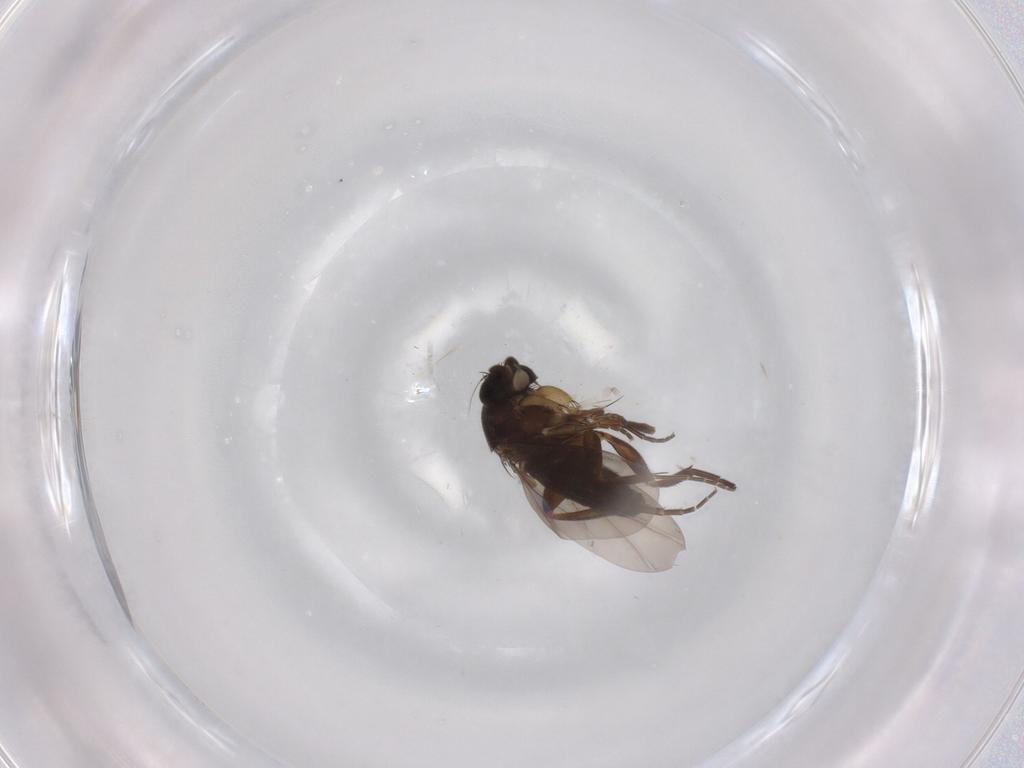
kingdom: Animalia
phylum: Arthropoda
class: Insecta
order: Diptera
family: Phoridae
